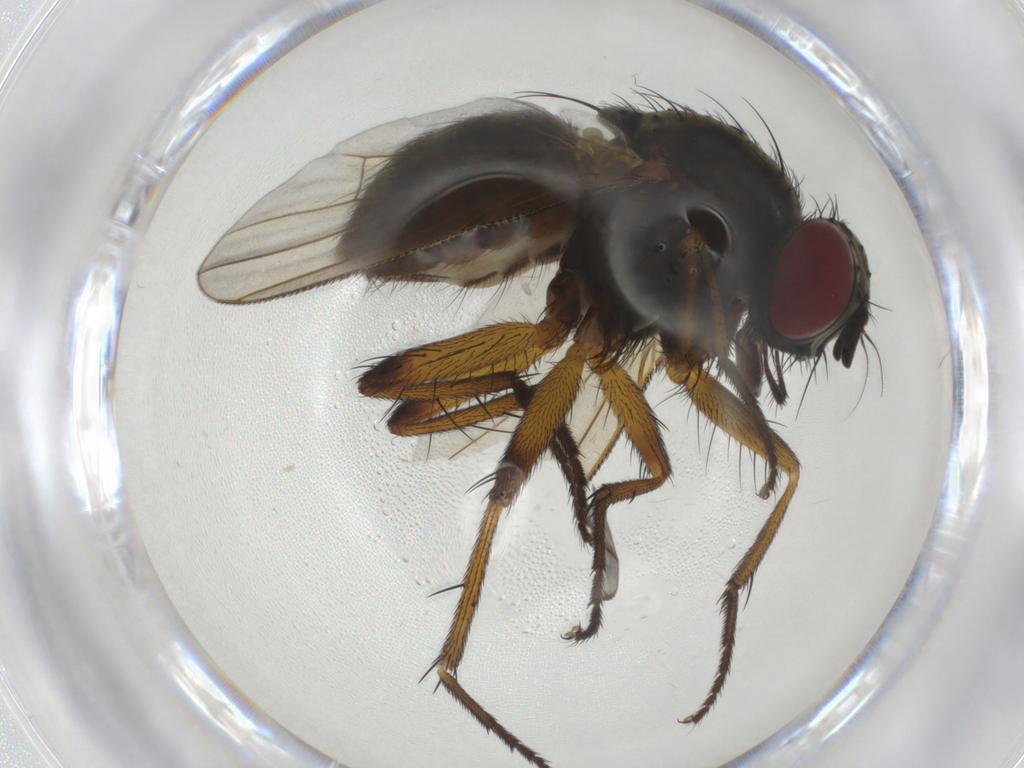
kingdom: Animalia
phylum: Arthropoda
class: Insecta
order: Diptera
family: Muscidae
